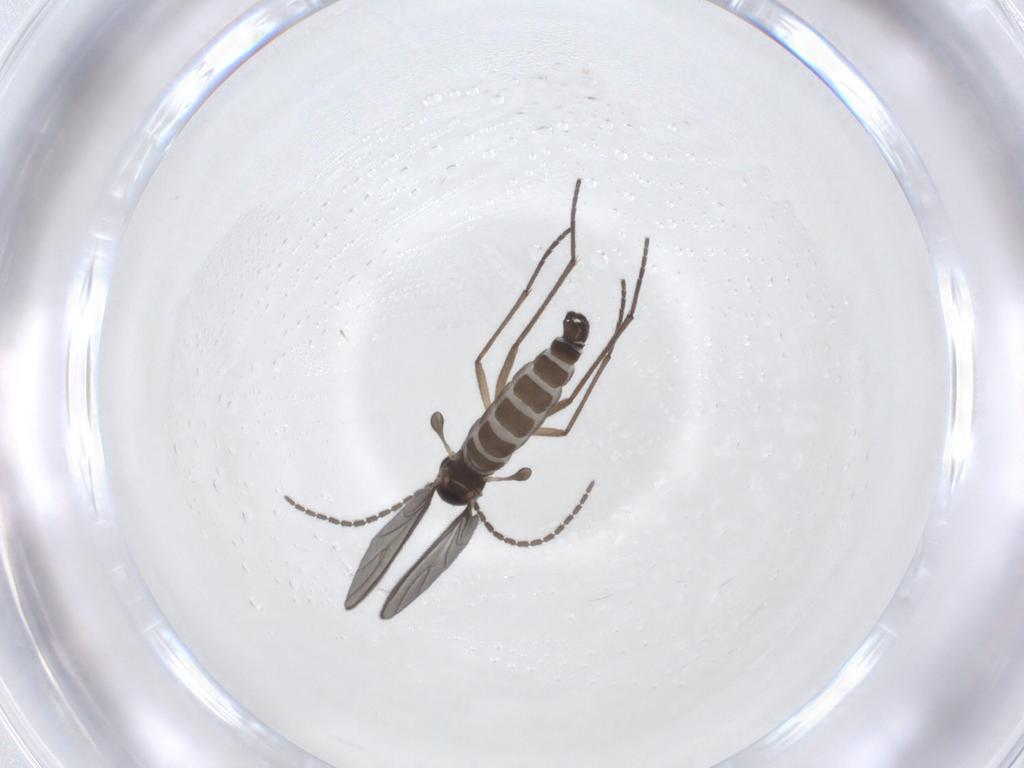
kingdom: Animalia
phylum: Arthropoda
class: Insecta
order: Diptera
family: Sciaridae
